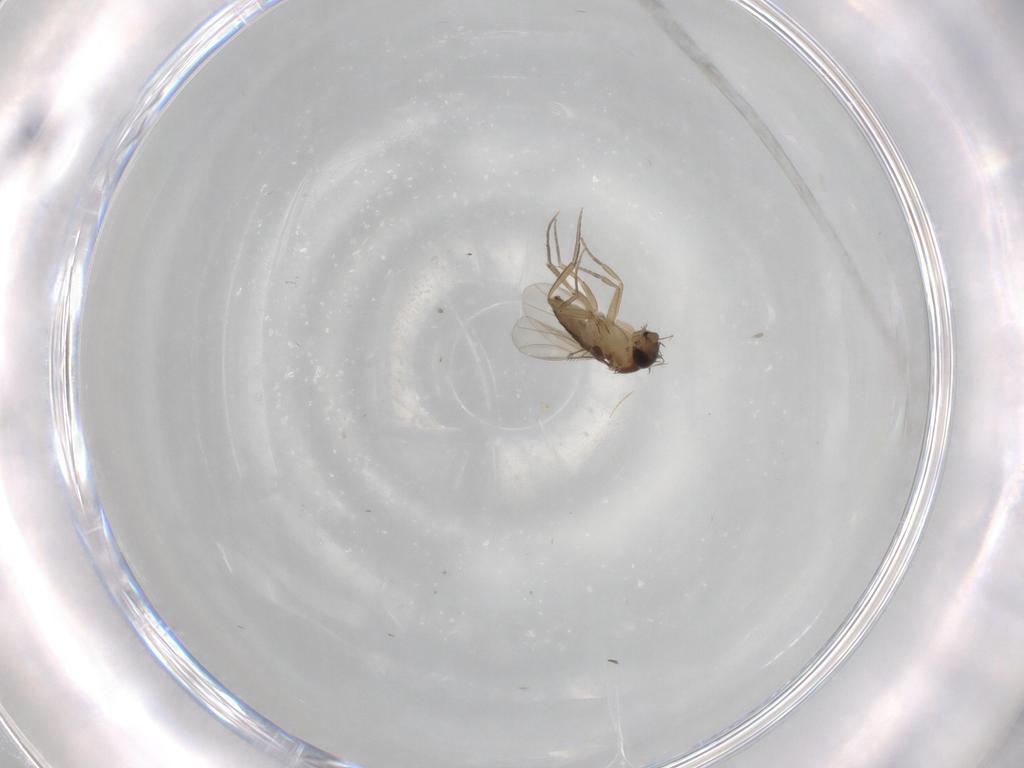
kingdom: Animalia
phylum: Arthropoda
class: Insecta
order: Diptera
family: Phoridae
